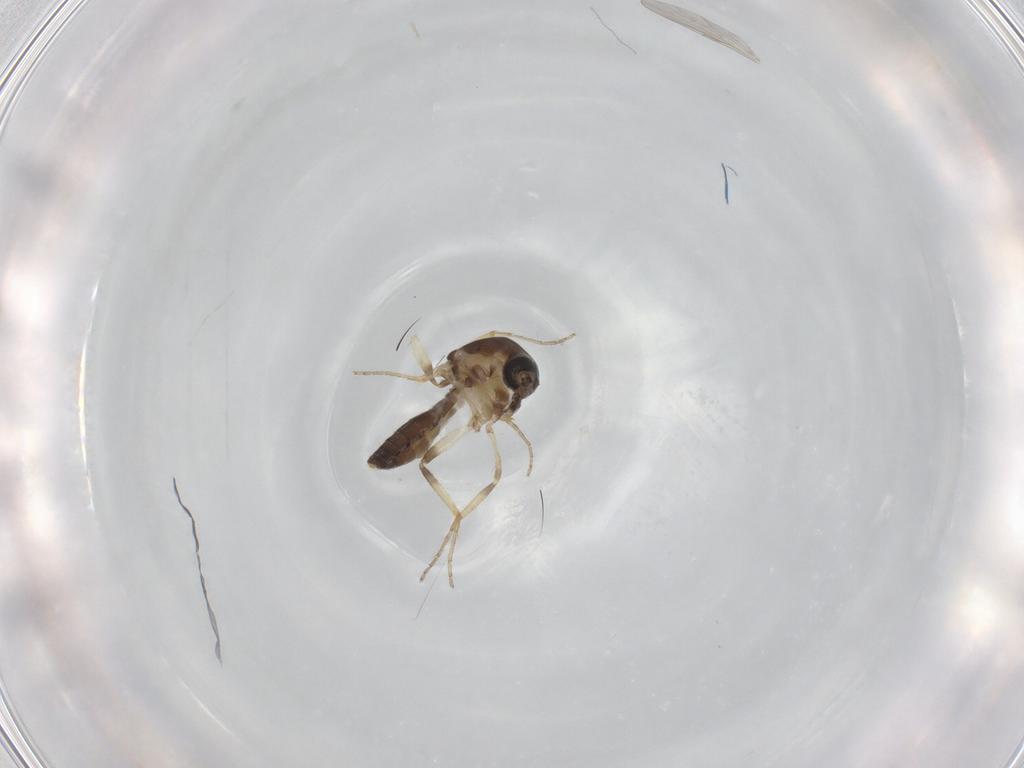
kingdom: Animalia
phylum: Arthropoda
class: Insecta
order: Diptera
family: Ceratopogonidae
